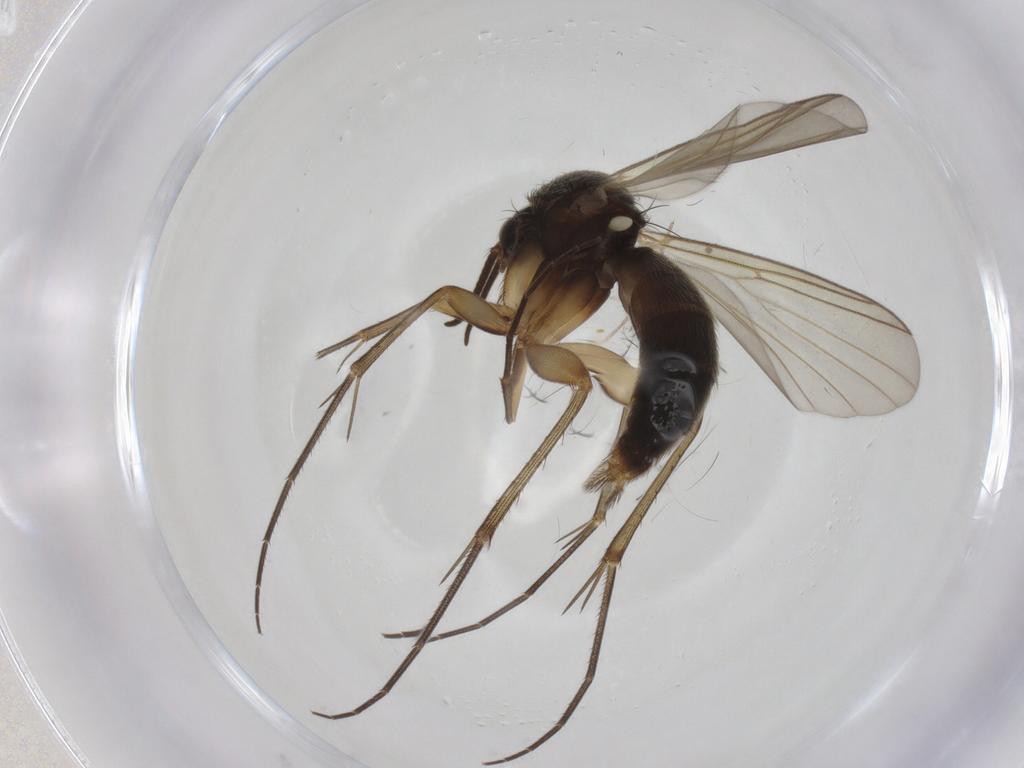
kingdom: Animalia
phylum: Arthropoda
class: Insecta
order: Diptera
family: Cecidomyiidae
